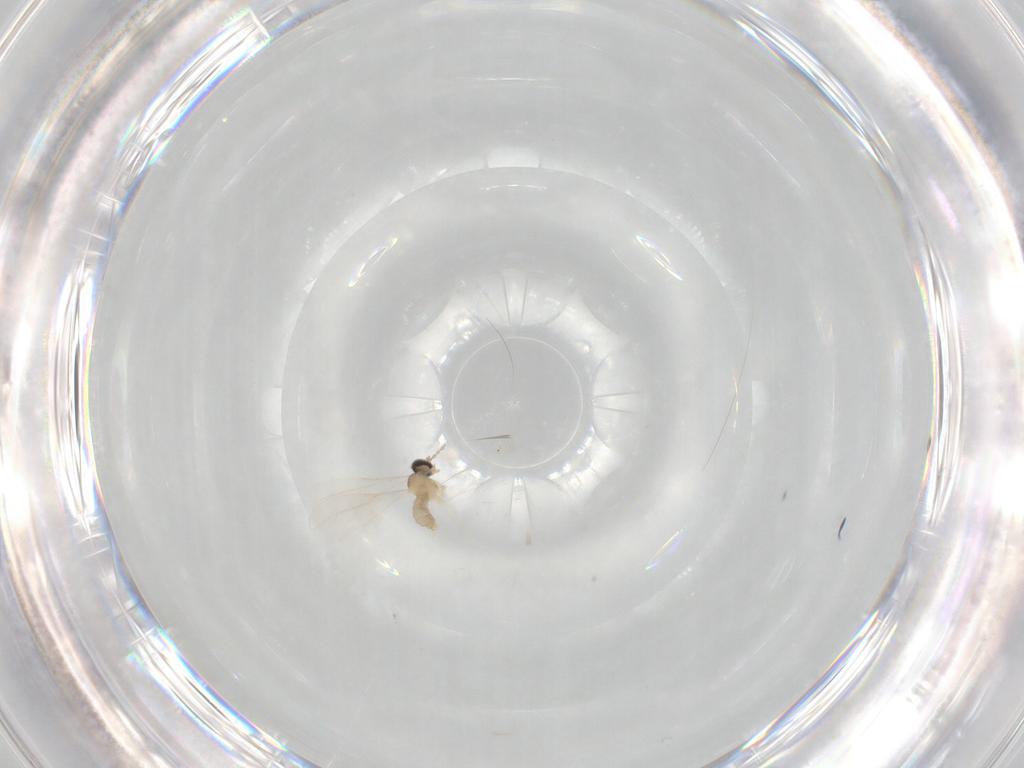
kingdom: Animalia
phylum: Arthropoda
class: Insecta
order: Diptera
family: Cecidomyiidae
